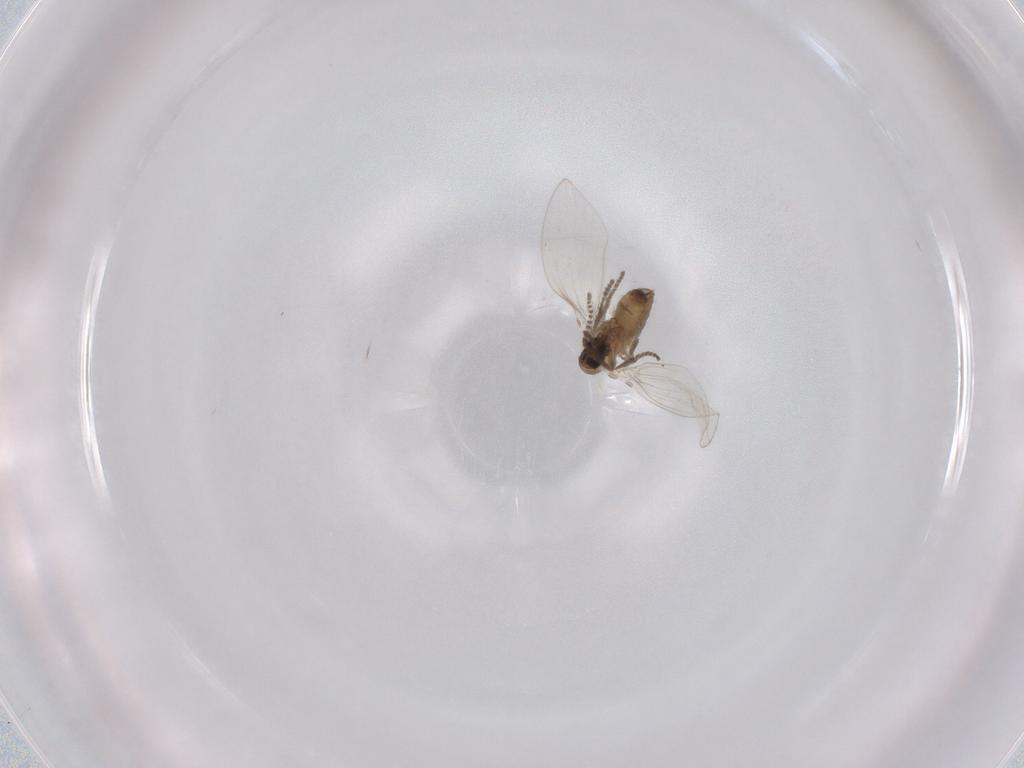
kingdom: Animalia
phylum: Arthropoda
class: Insecta
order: Diptera
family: Psychodidae
